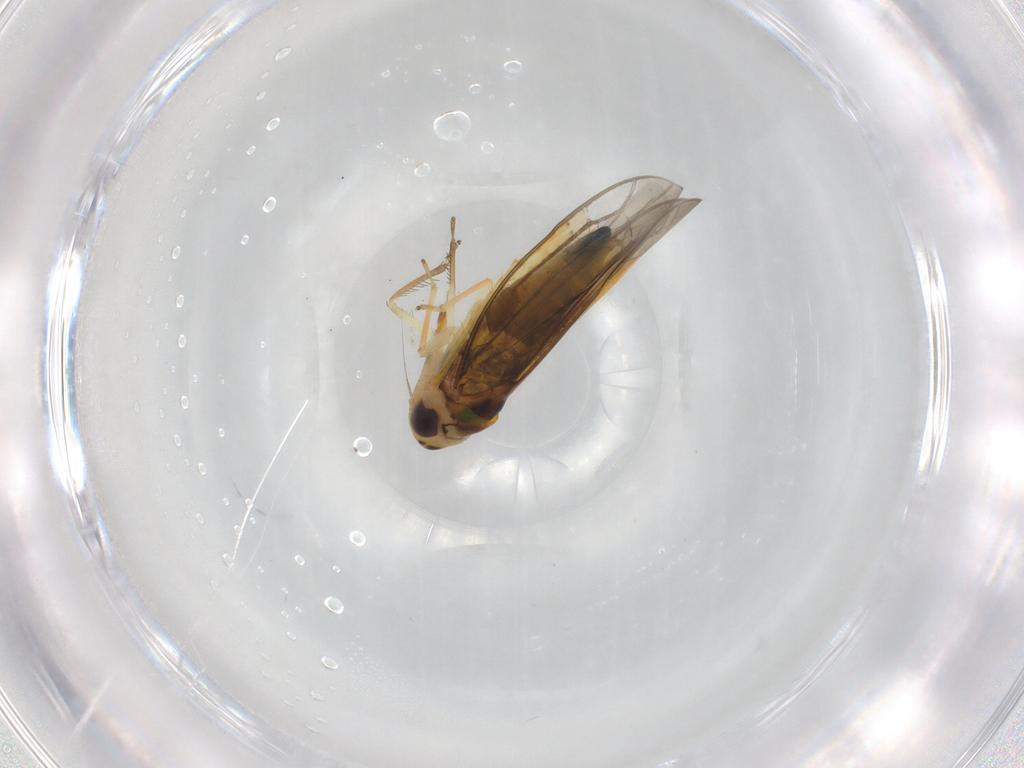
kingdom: Animalia
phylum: Arthropoda
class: Insecta
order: Hemiptera
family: Cicadellidae
